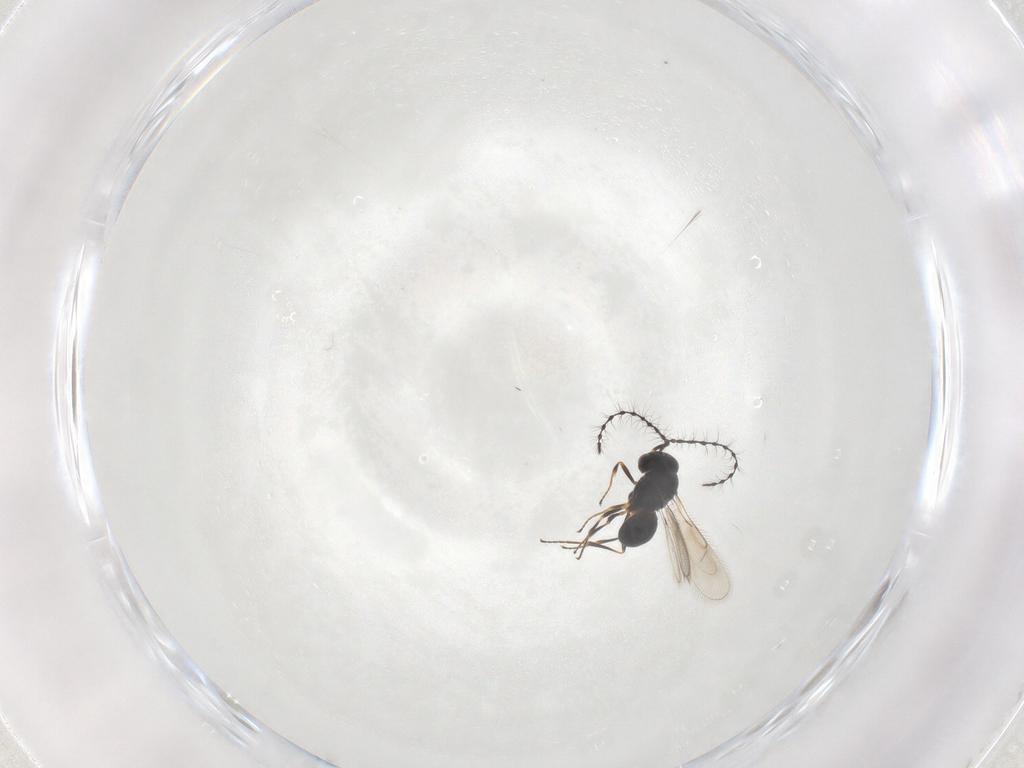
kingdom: Animalia
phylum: Arthropoda
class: Insecta
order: Hymenoptera
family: Scelionidae
